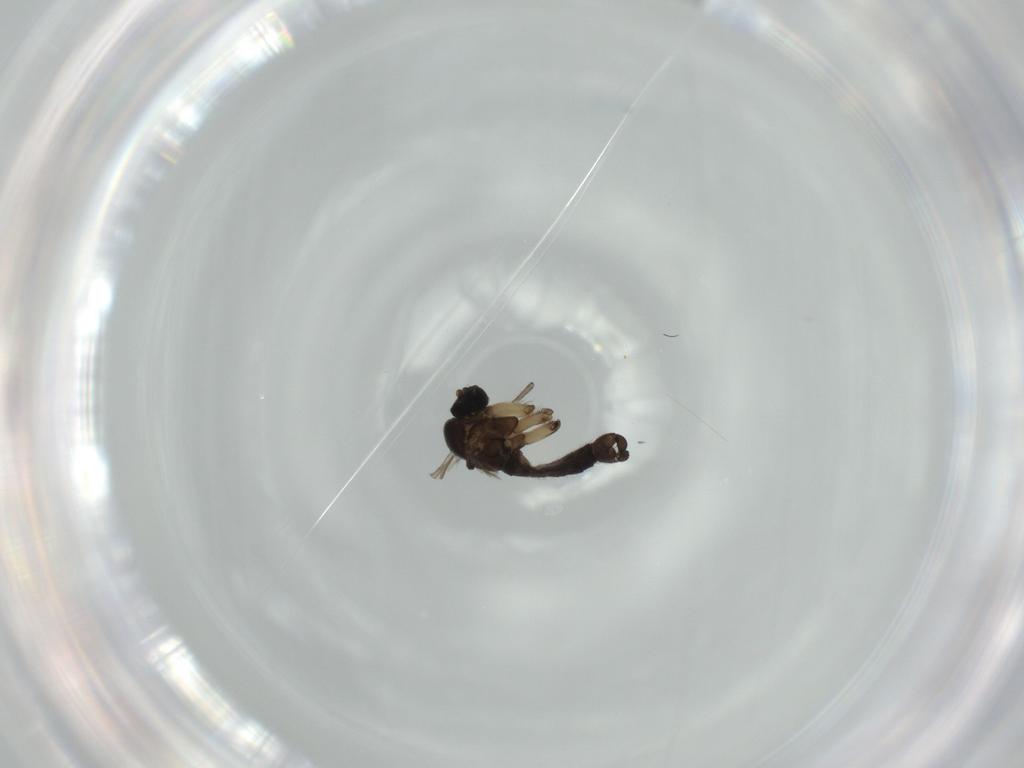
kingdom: Animalia
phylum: Arthropoda
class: Insecta
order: Diptera
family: Sciaridae
